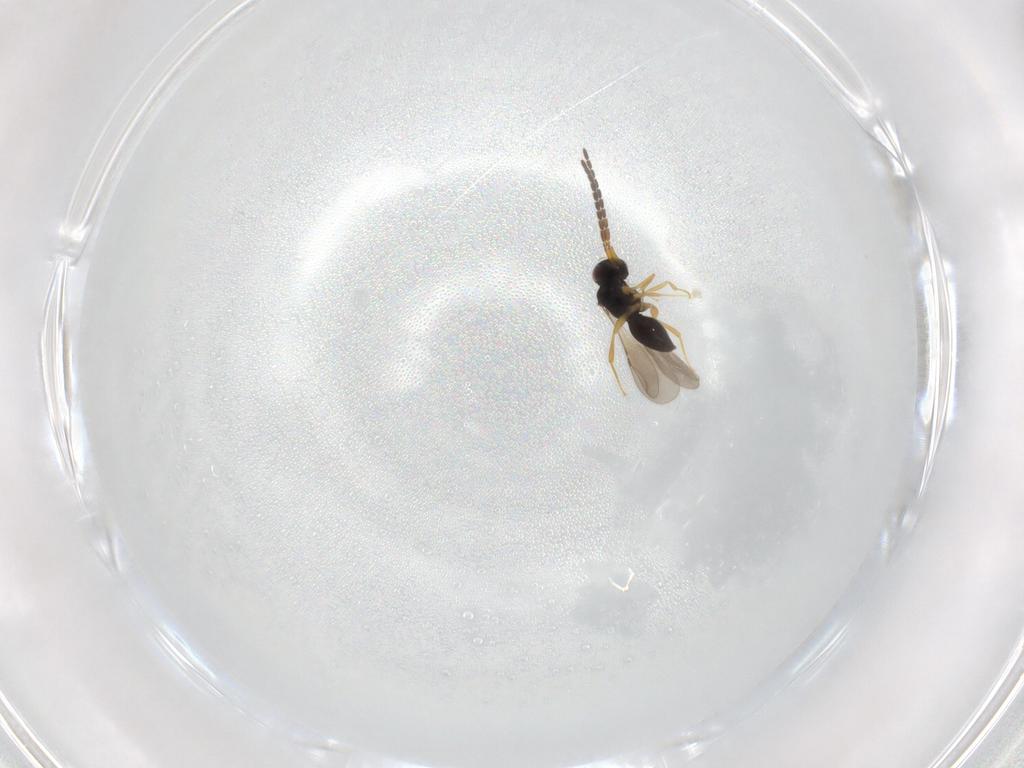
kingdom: Animalia
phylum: Arthropoda
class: Insecta
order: Hymenoptera
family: Ceraphronidae
